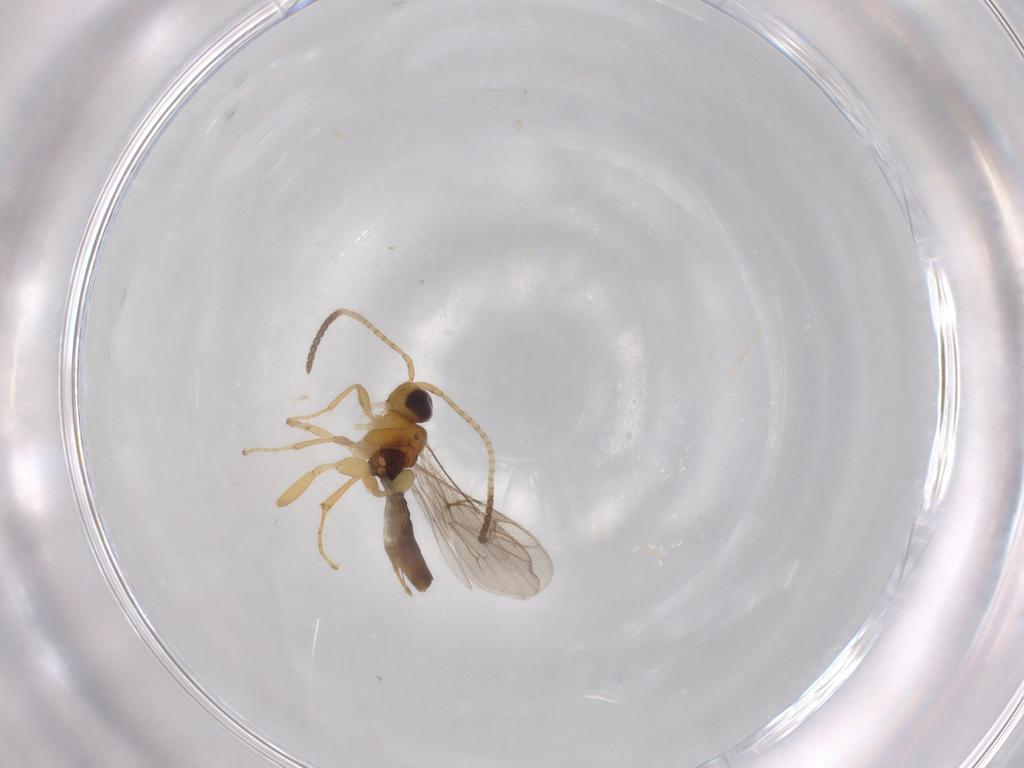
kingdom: Animalia
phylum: Arthropoda
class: Insecta
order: Hymenoptera
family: Ichneumonidae
